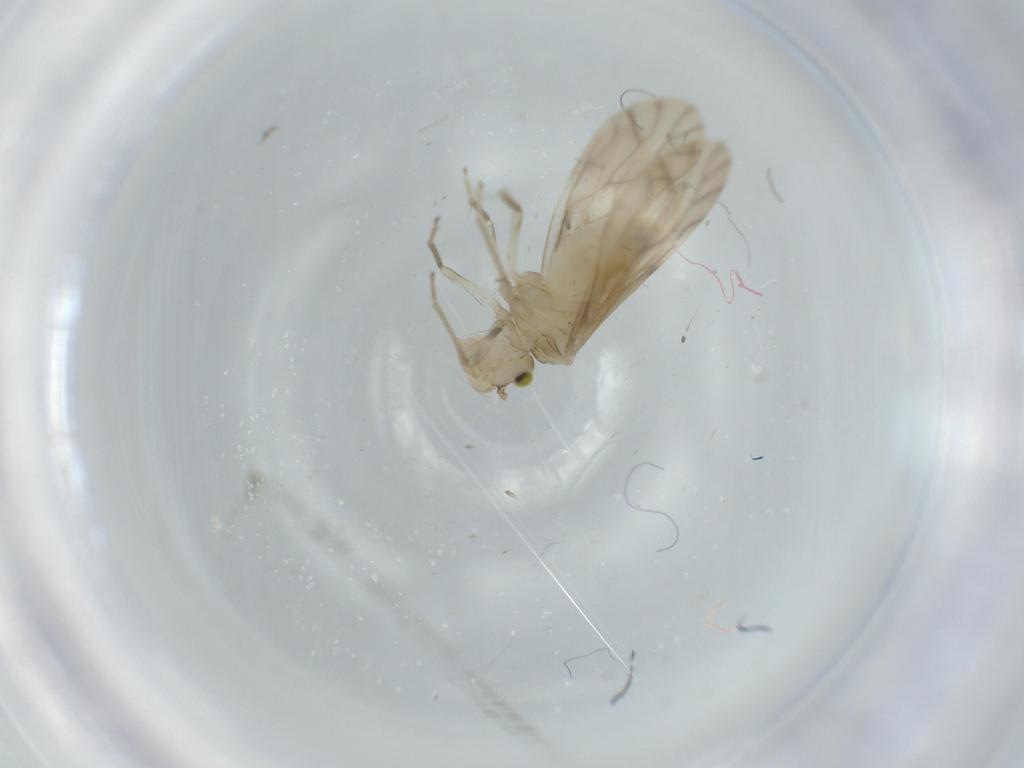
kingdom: Animalia
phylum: Arthropoda
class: Insecta
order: Psocodea
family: Caeciliusidae
